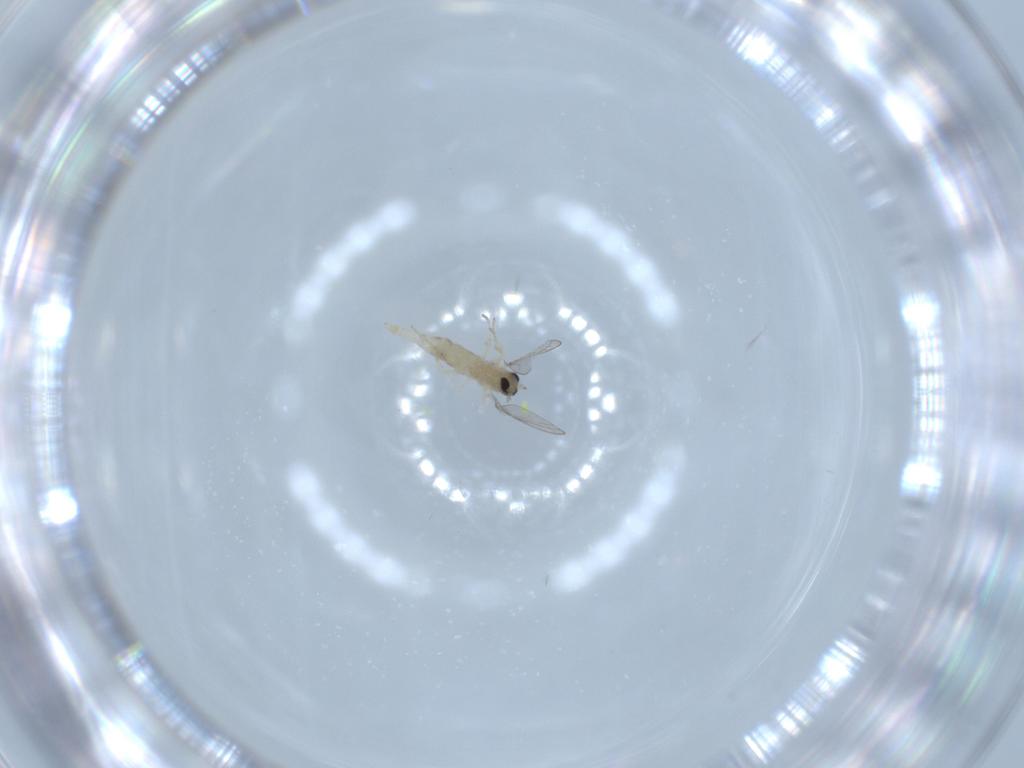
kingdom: Animalia
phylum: Arthropoda
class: Insecta
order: Diptera
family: Cecidomyiidae
